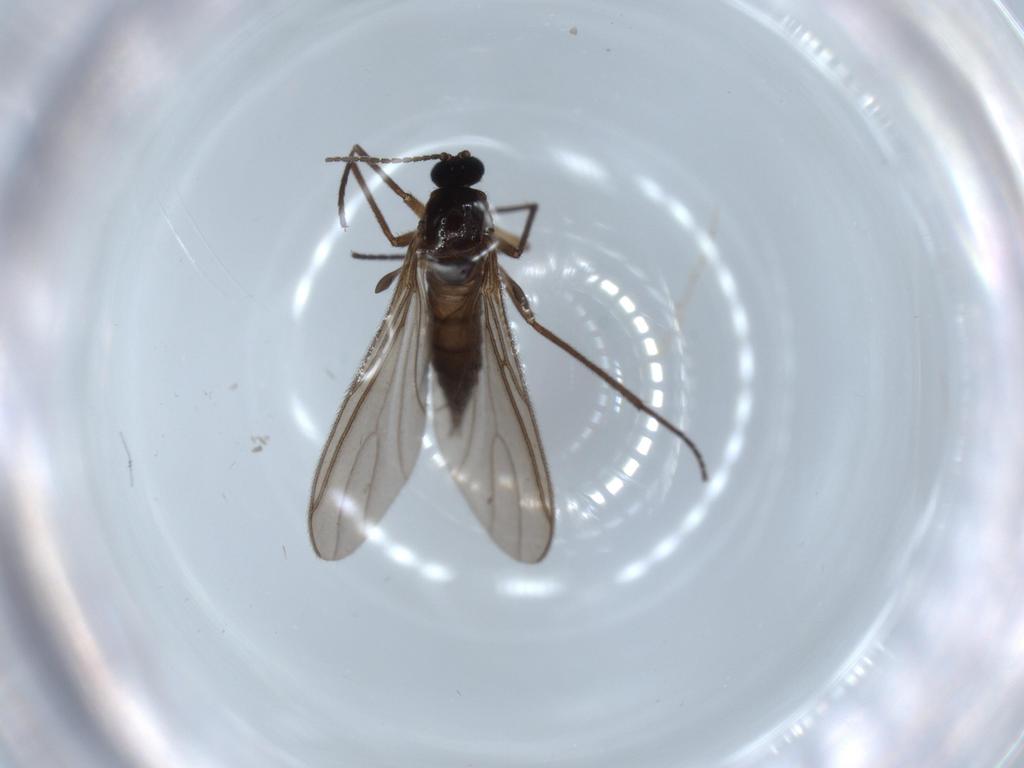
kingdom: Animalia
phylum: Arthropoda
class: Insecta
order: Diptera
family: Sciaridae
